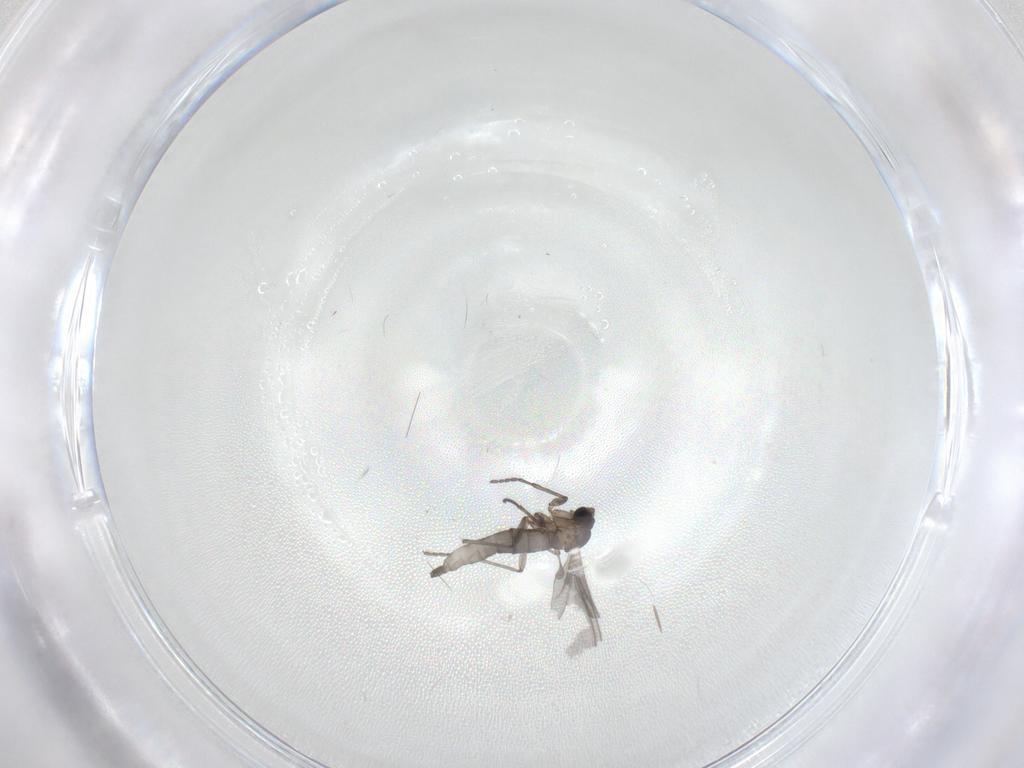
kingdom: Animalia
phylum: Arthropoda
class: Insecta
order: Diptera
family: Sciaridae
